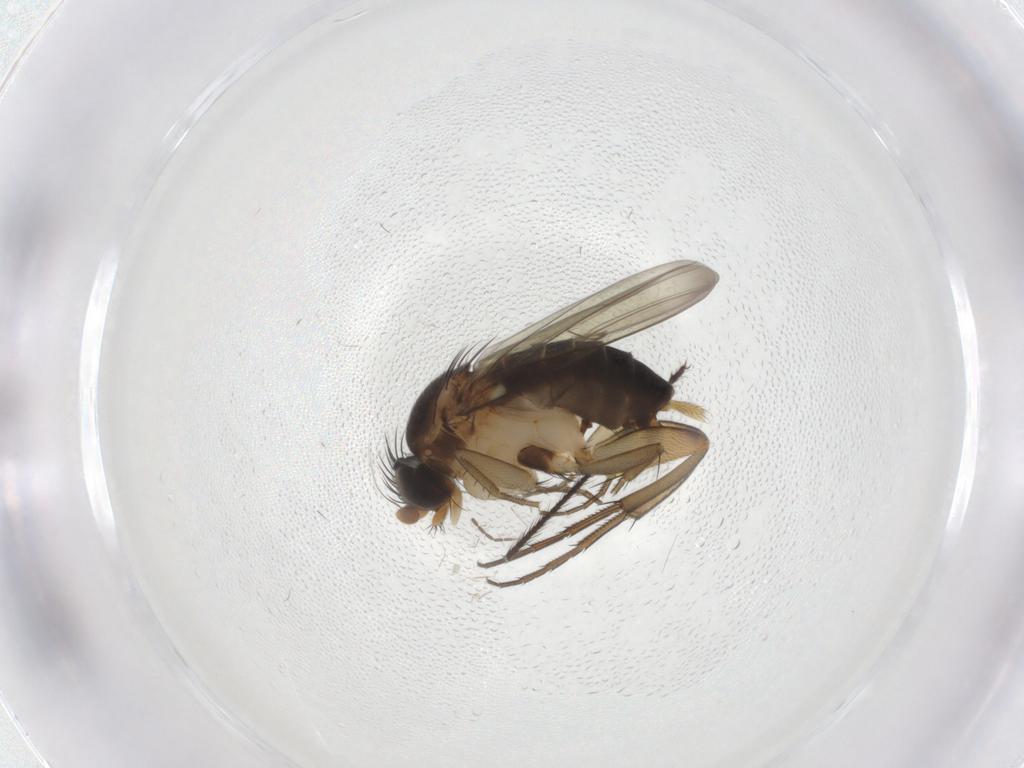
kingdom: Animalia
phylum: Arthropoda
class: Insecta
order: Diptera
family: Phoridae
